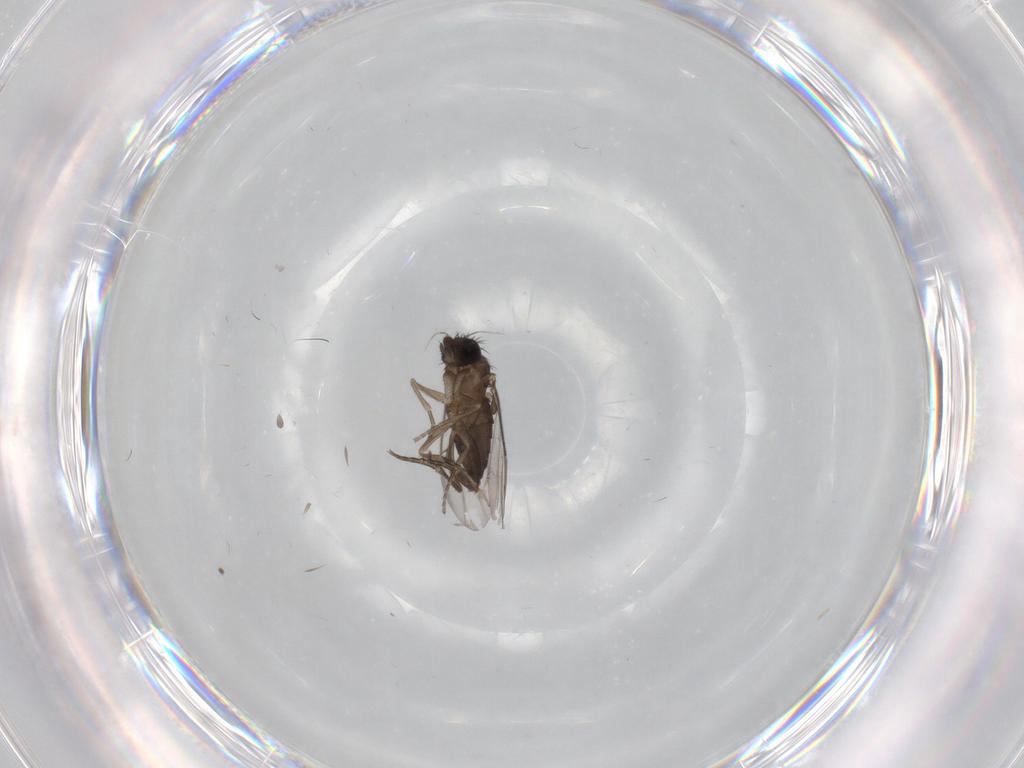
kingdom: Animalia
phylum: Arthropoda
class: Insecta
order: Diptera
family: Phoridae
